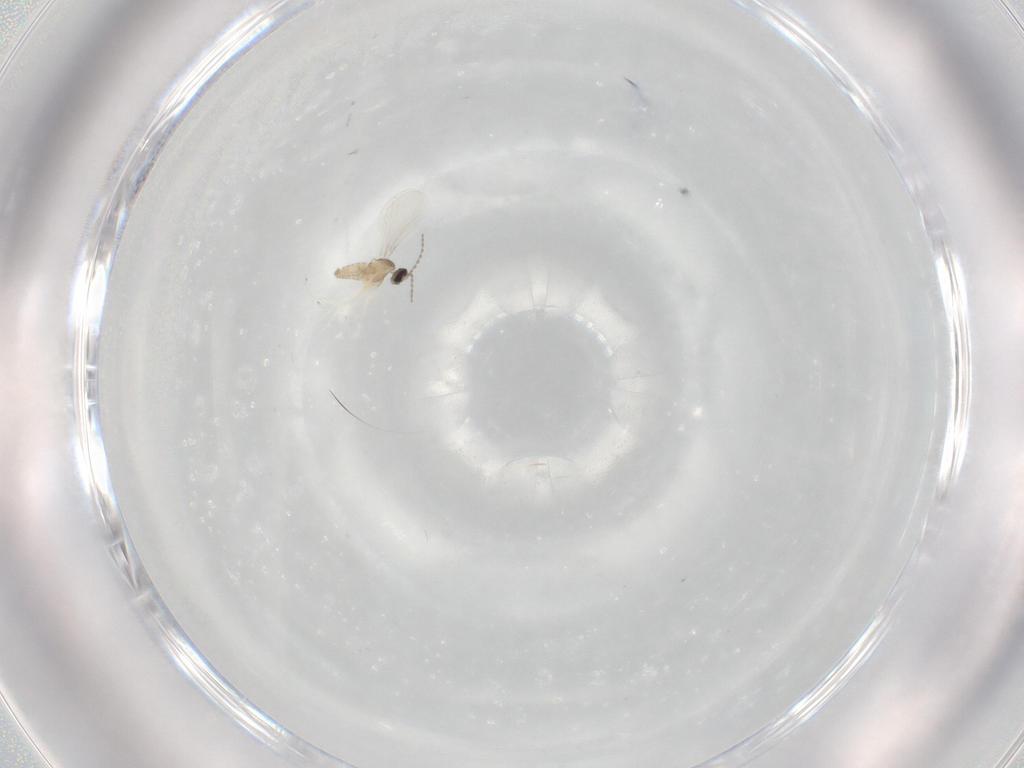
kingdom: Animalia
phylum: Arthropoda
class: Insecta
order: Diptera
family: Cecidomyiidae
